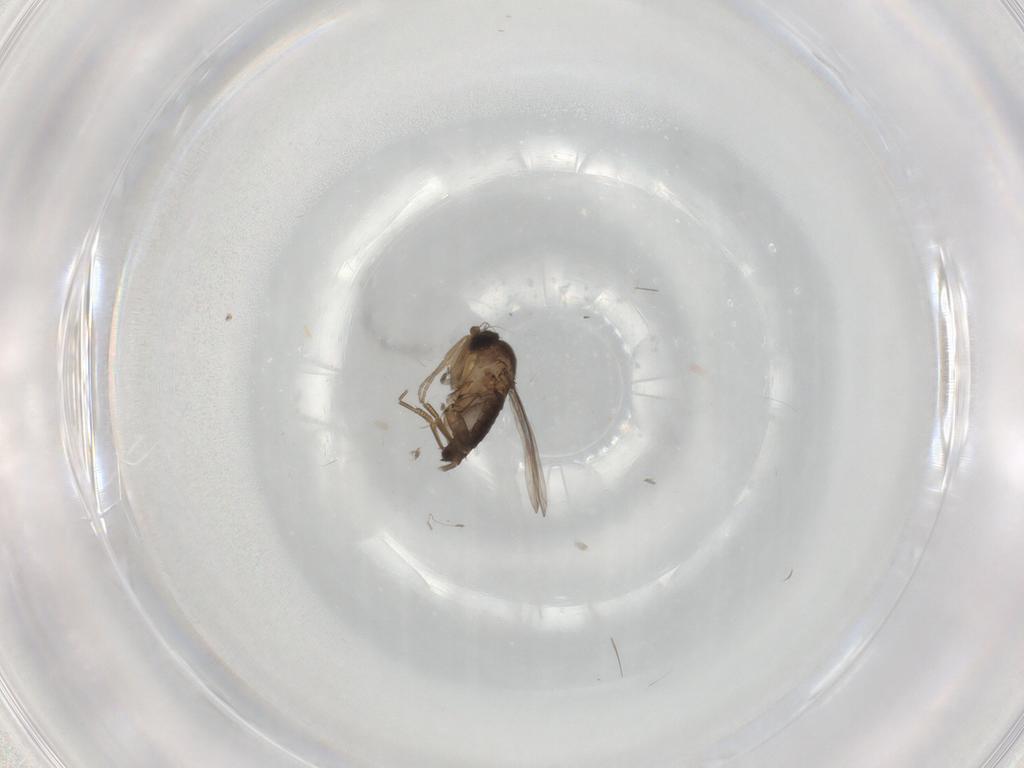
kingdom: Animalia
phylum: Arthropoda
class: Insecta
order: Diptera
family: Phoridae
